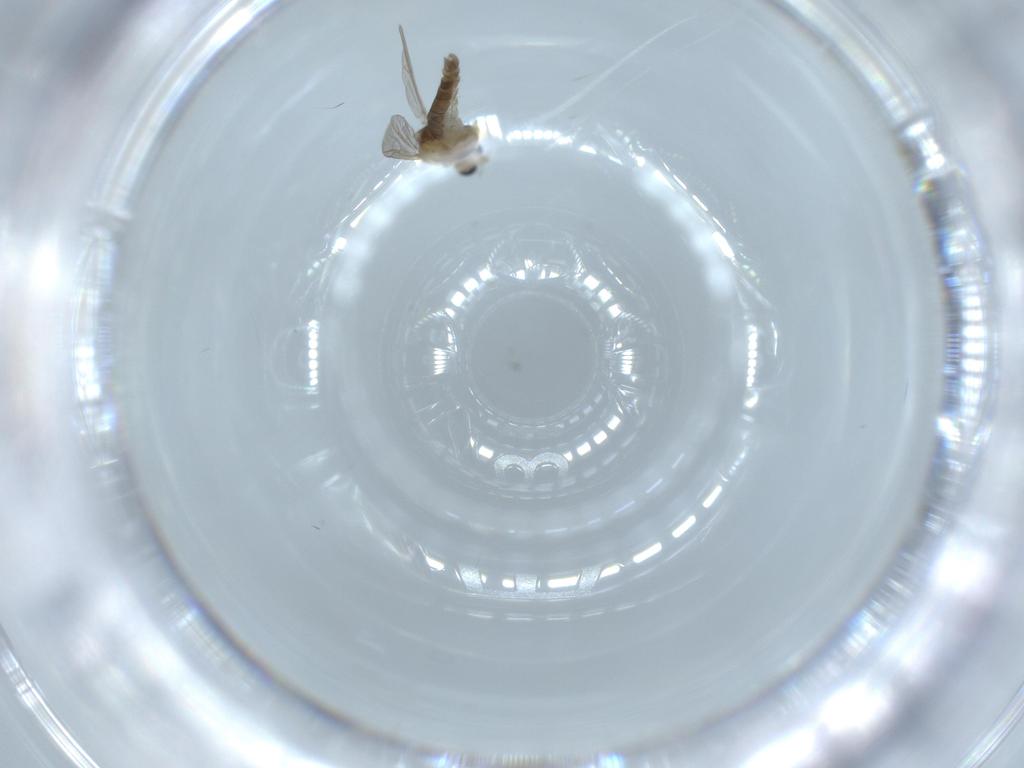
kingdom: Animalia
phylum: Arthropoda
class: Insecta
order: Diptera
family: Chironomidae
